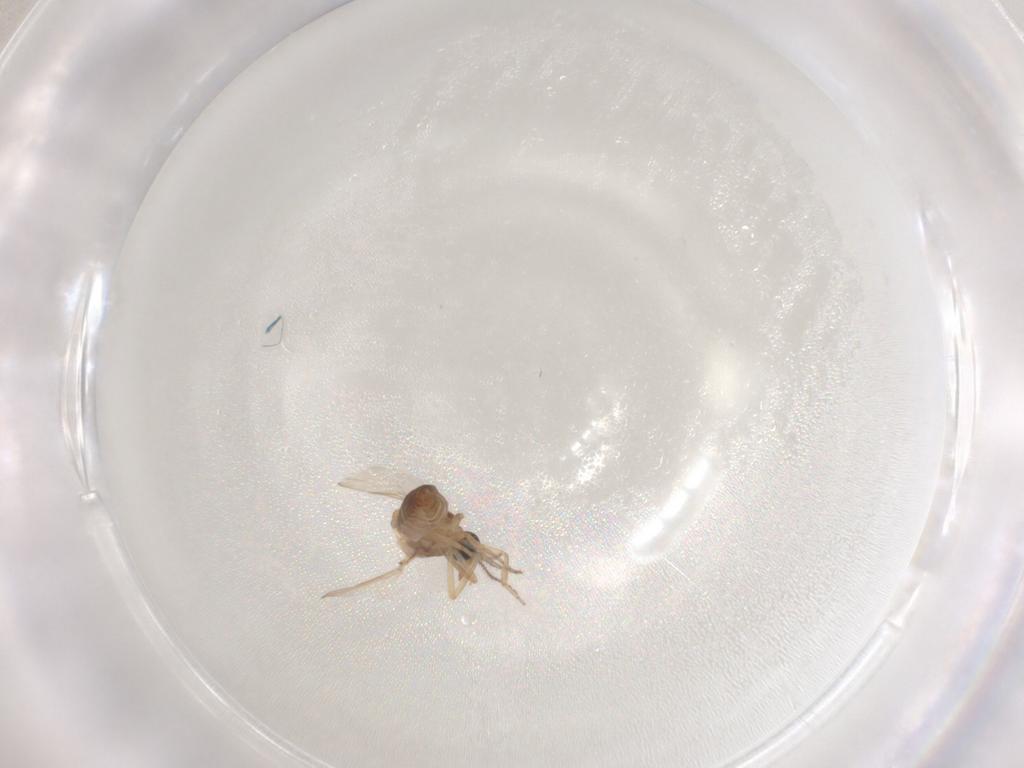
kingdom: Animalia
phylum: Arthropoda
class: Insecta
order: Diptera
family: Ceratopogonidae
